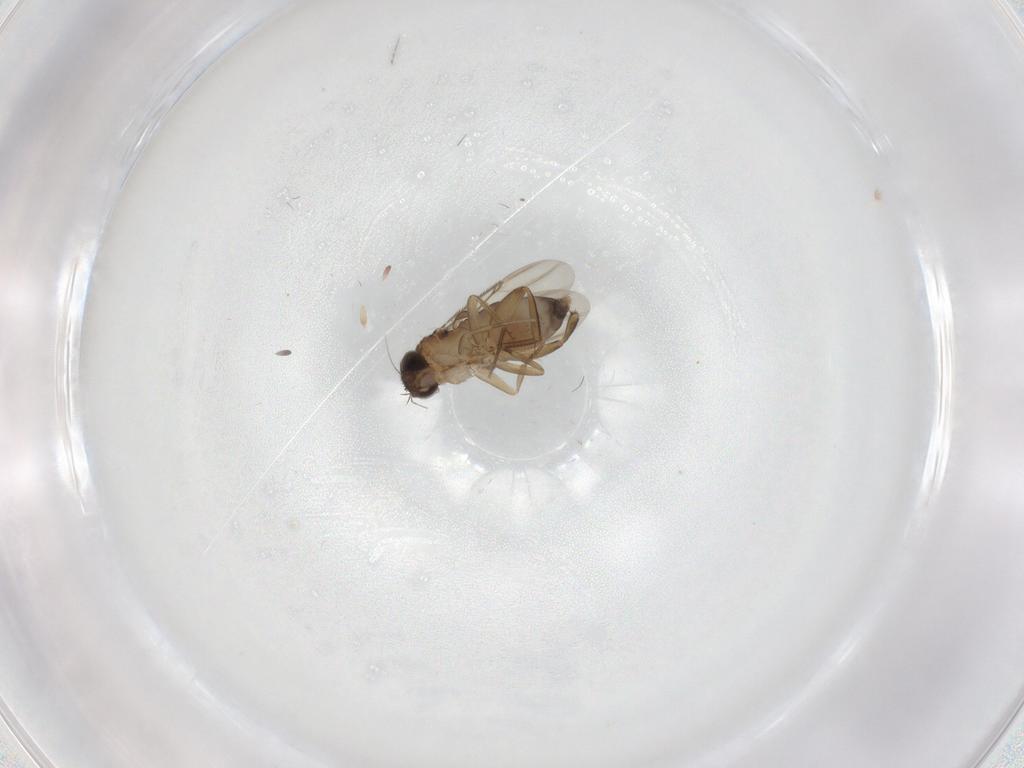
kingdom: Animalia
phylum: Arthropoda
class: Insecta
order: Diptera
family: Phoridae
